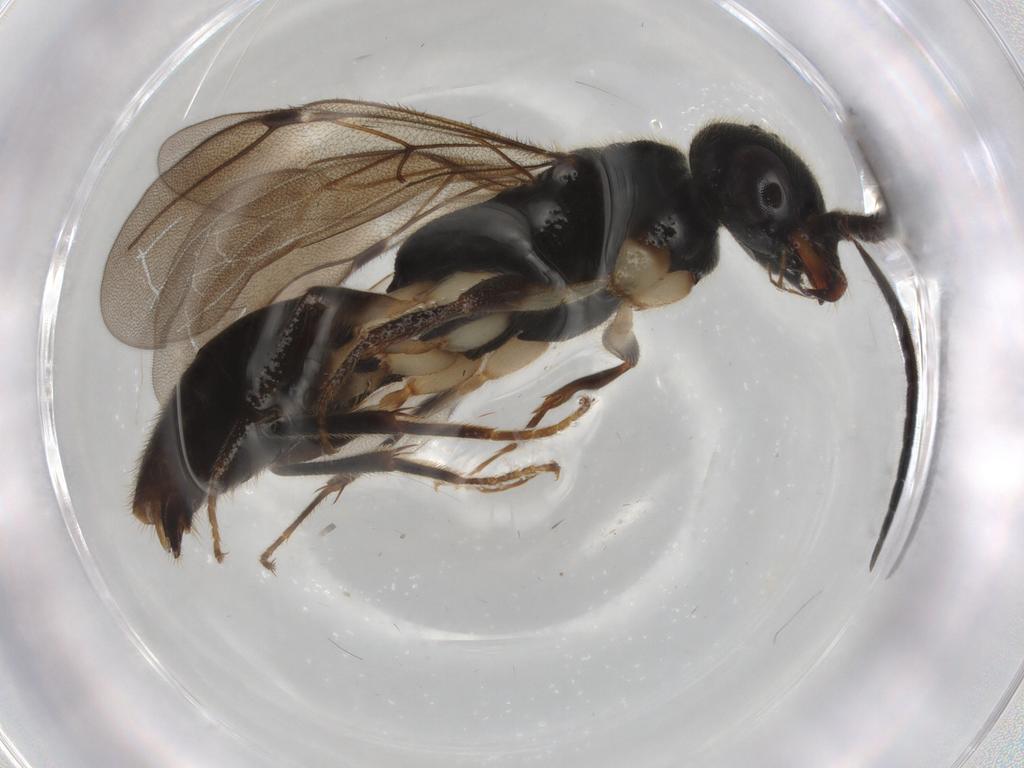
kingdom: Animalia
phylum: Arthropoda
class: Insecta
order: Hymenoptera
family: Bethylidae
